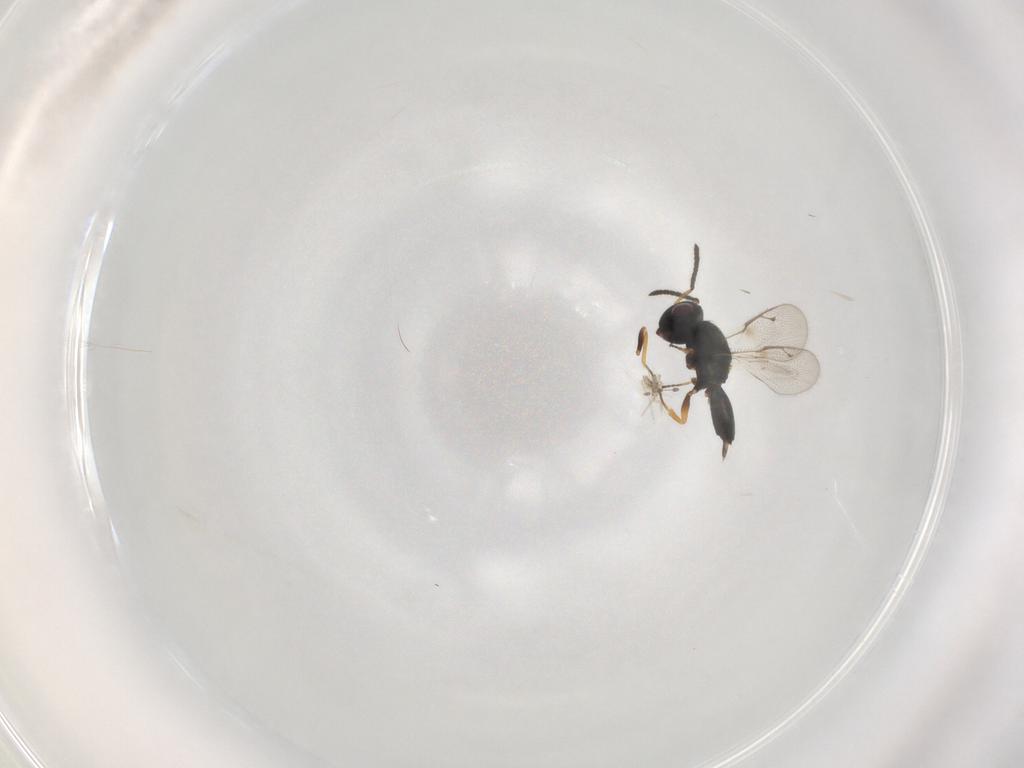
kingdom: Animalia
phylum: Arthropoda
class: Insecta
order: Hymenoptera
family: Pteromalidae
